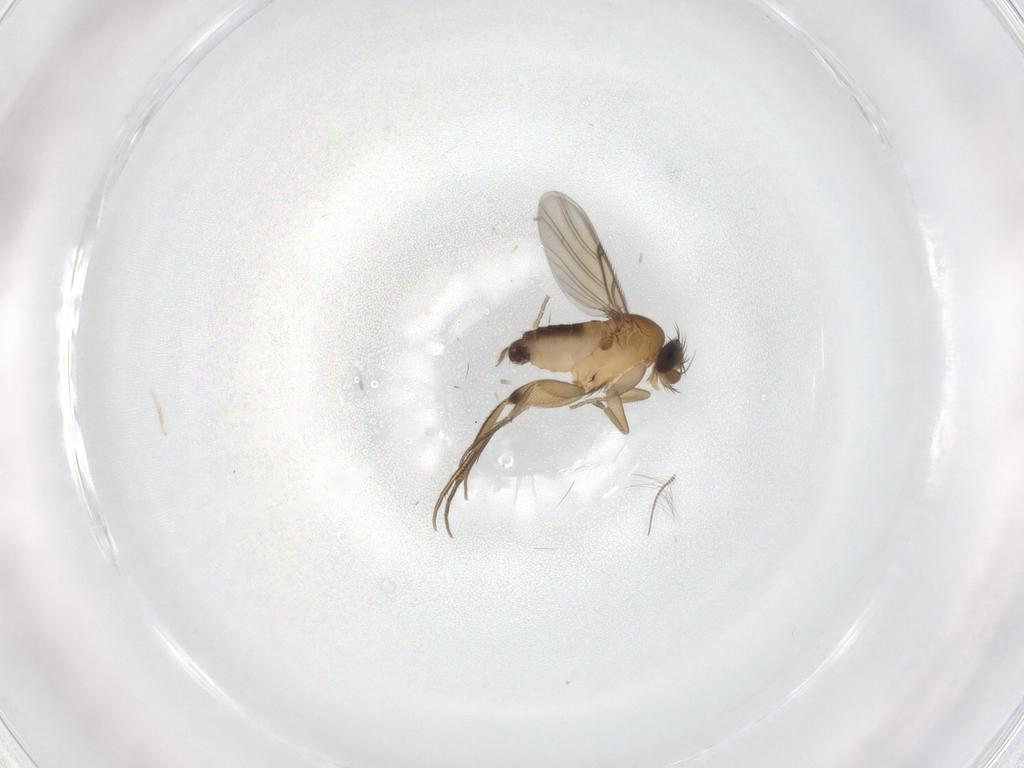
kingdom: Animalia
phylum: Arthropoda
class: Insecta
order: Diptera
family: Phoridae
